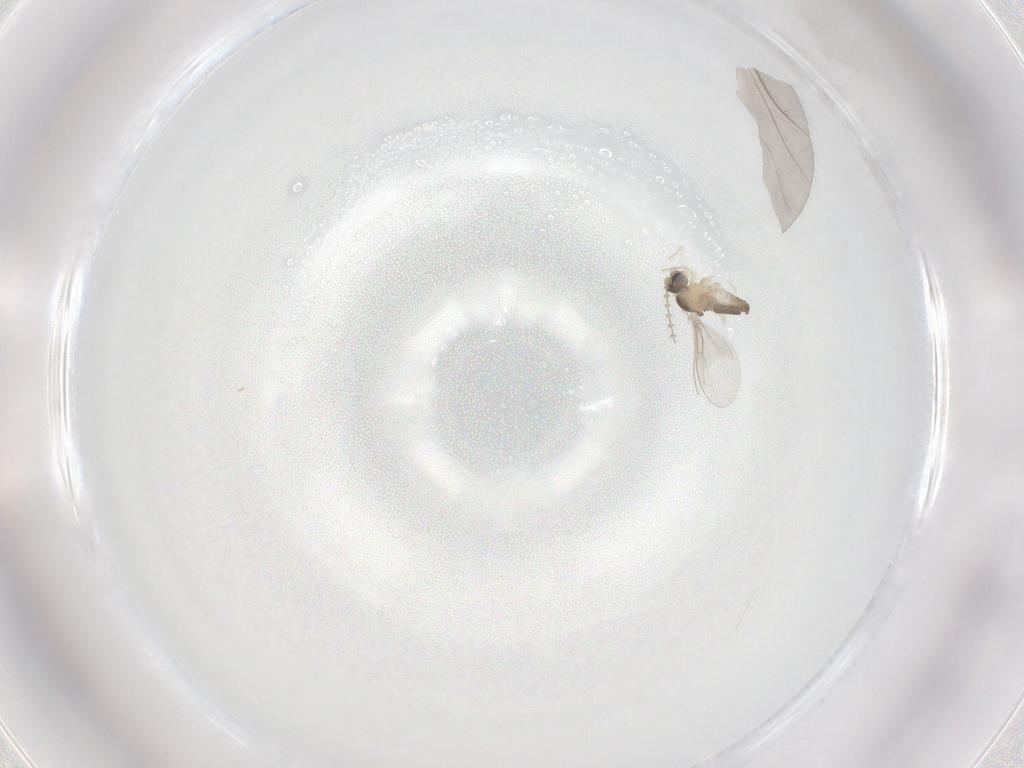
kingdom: Animalia
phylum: Arthropoda
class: Insecta
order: Diptera
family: Cecidomyiidae
